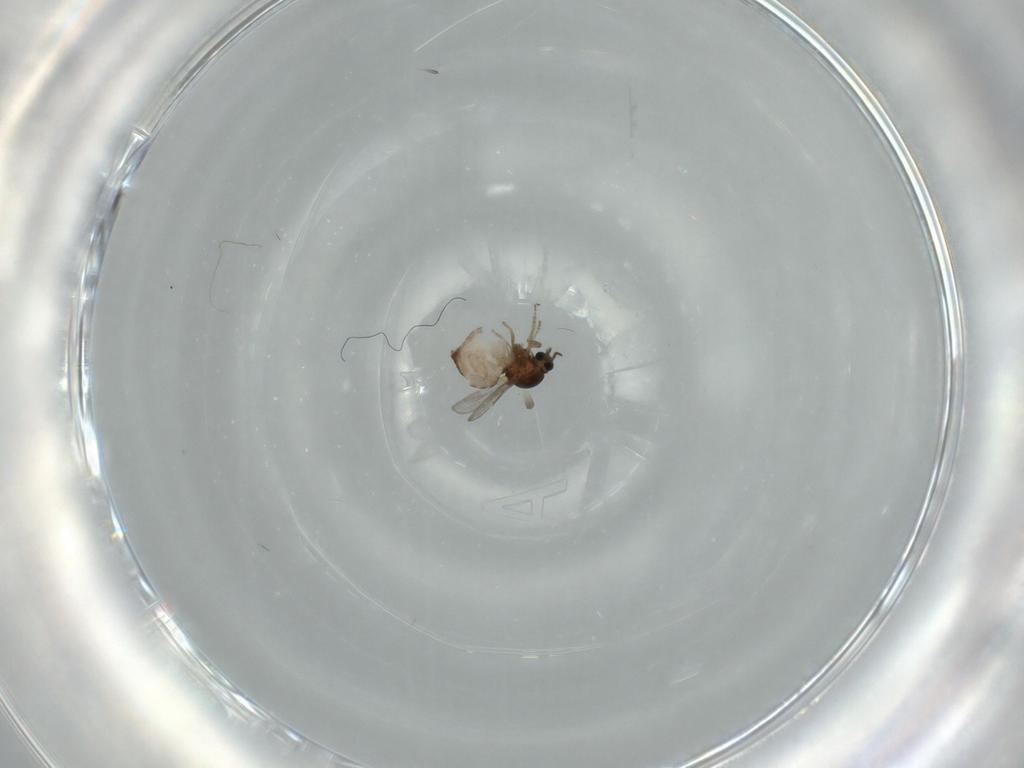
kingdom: Animalia
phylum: Arthropoda
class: Insecta
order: Diptera
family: Ceratopogonidae
